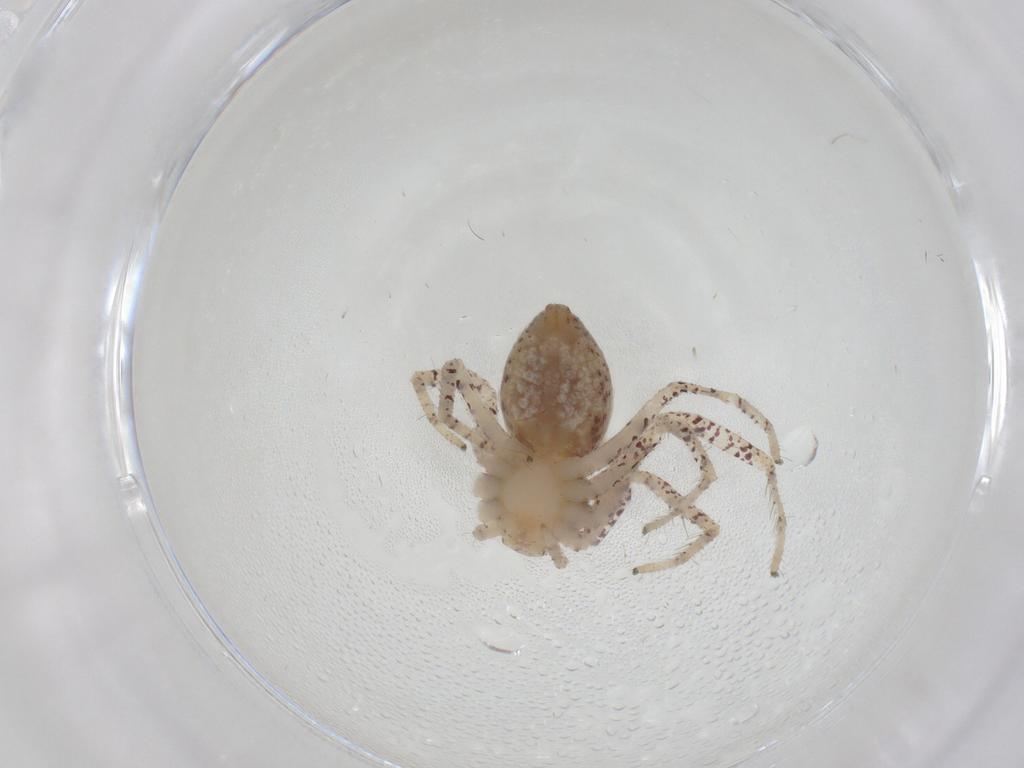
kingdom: Animalia
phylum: Arthropoda
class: Arachnida
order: Araneae
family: Philodromidae
